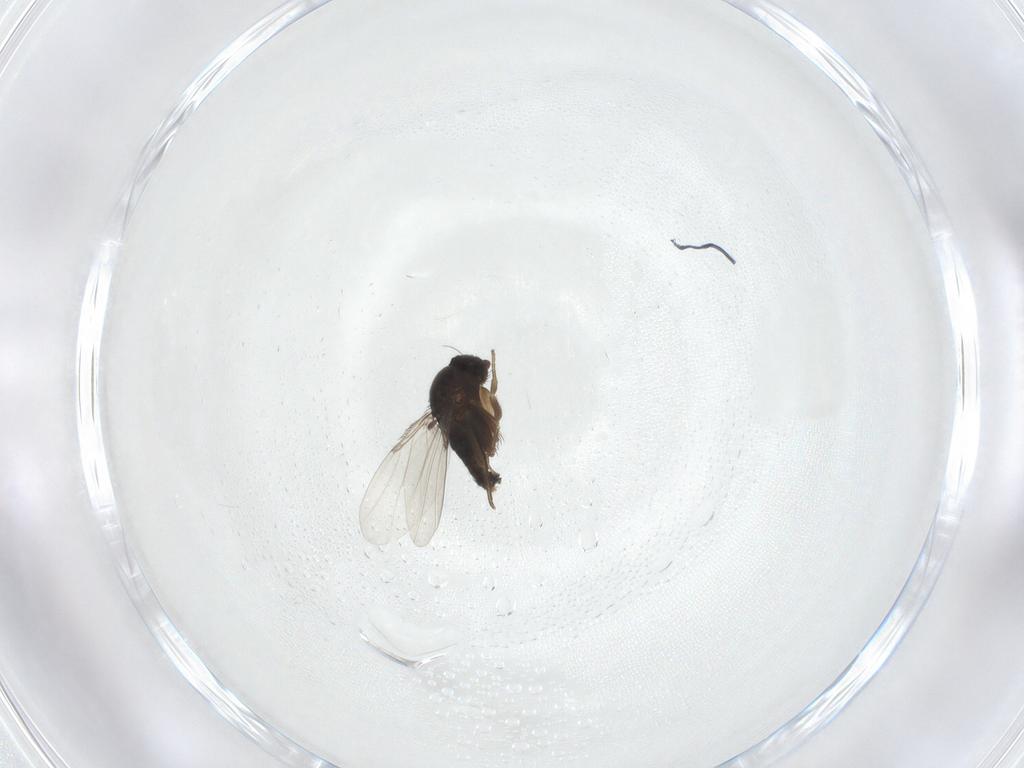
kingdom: Animalia
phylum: Arthropoda
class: Insecta
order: Diptera
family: Phoridae
